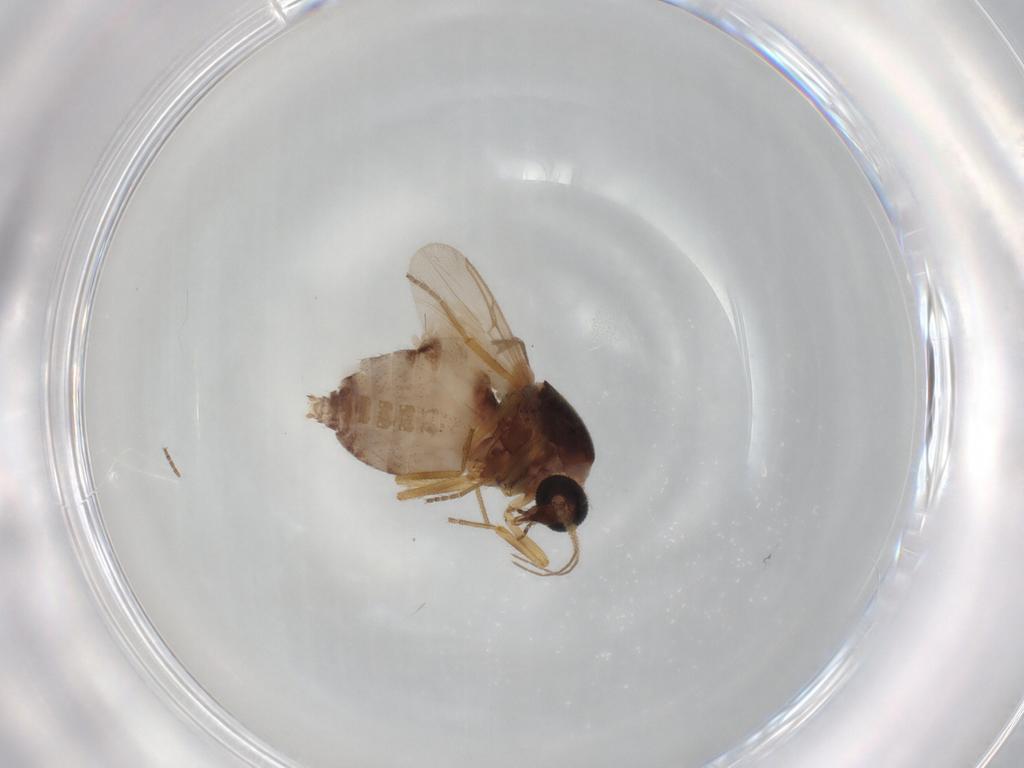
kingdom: Animalia
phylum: Arthropoda
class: Insecta
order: Diptera
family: Ceratopogonidae
